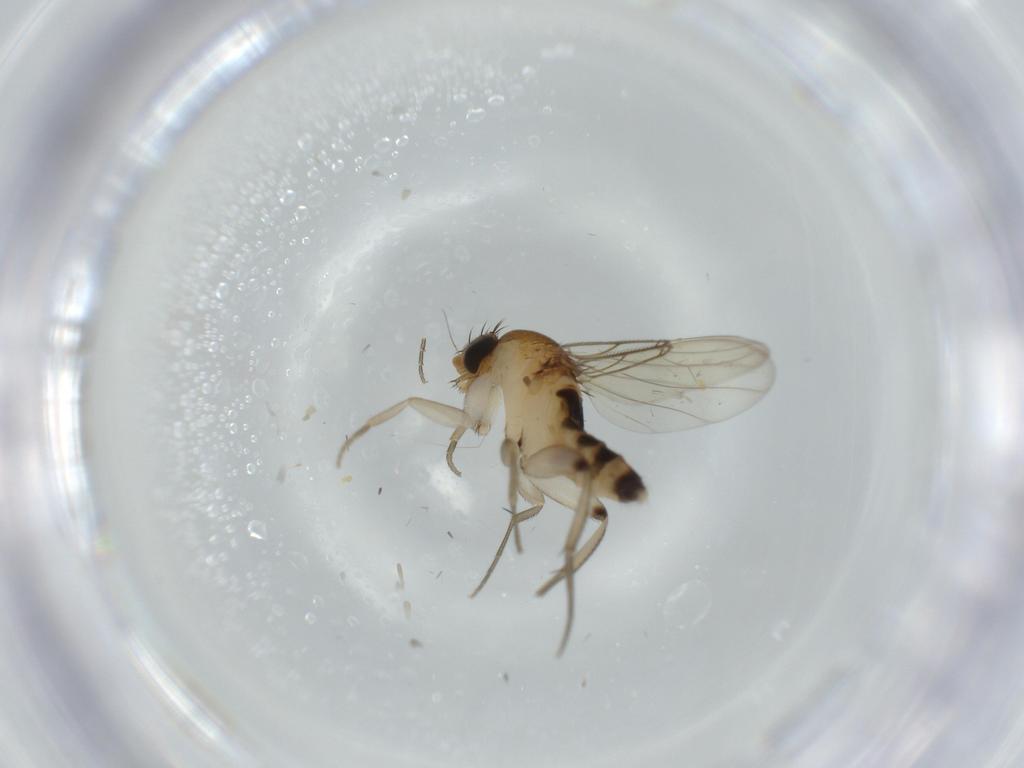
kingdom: Animalia
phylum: Arthropoda
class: Insecta
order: Diptera
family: Phoridae
